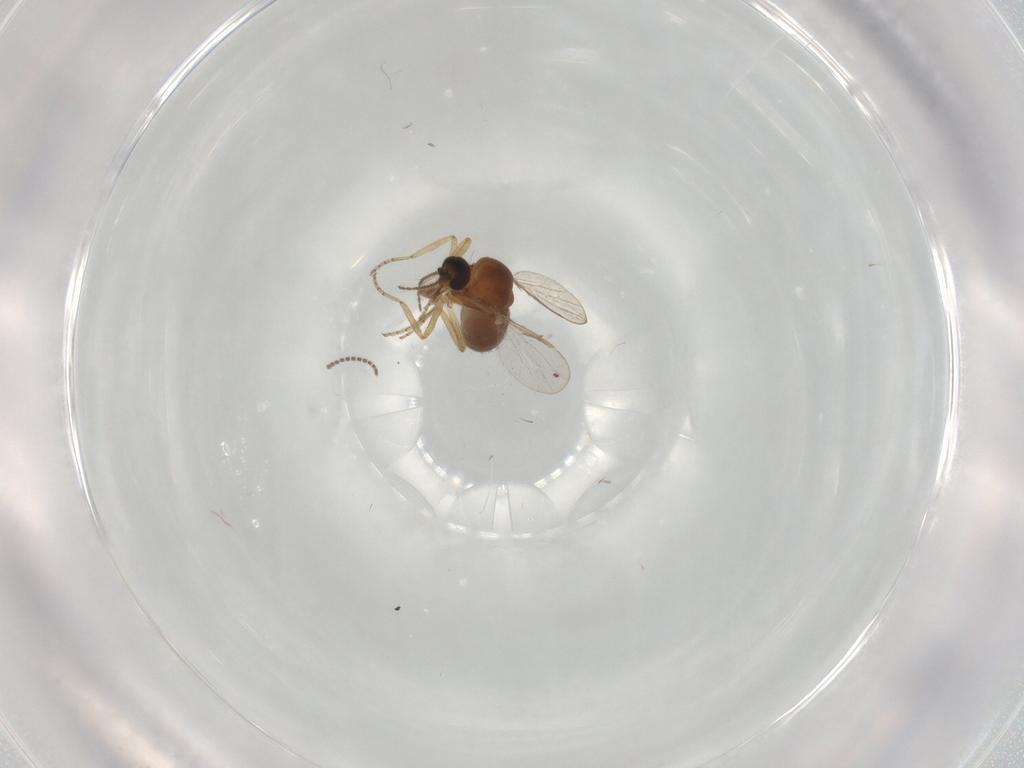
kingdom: Animalia
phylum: Arthropoda
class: Insecta
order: Diptera
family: Ceratopogonidae
